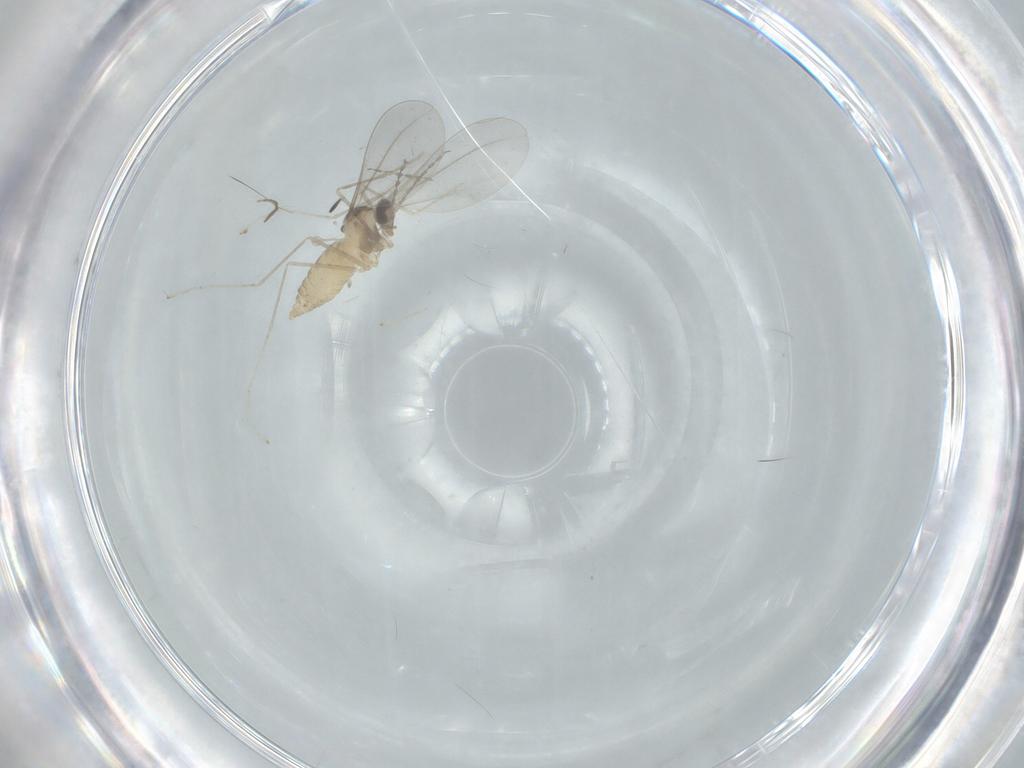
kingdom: Animalia
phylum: Arthropoda
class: Insecta
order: Diptera
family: Cecidomyiidae
